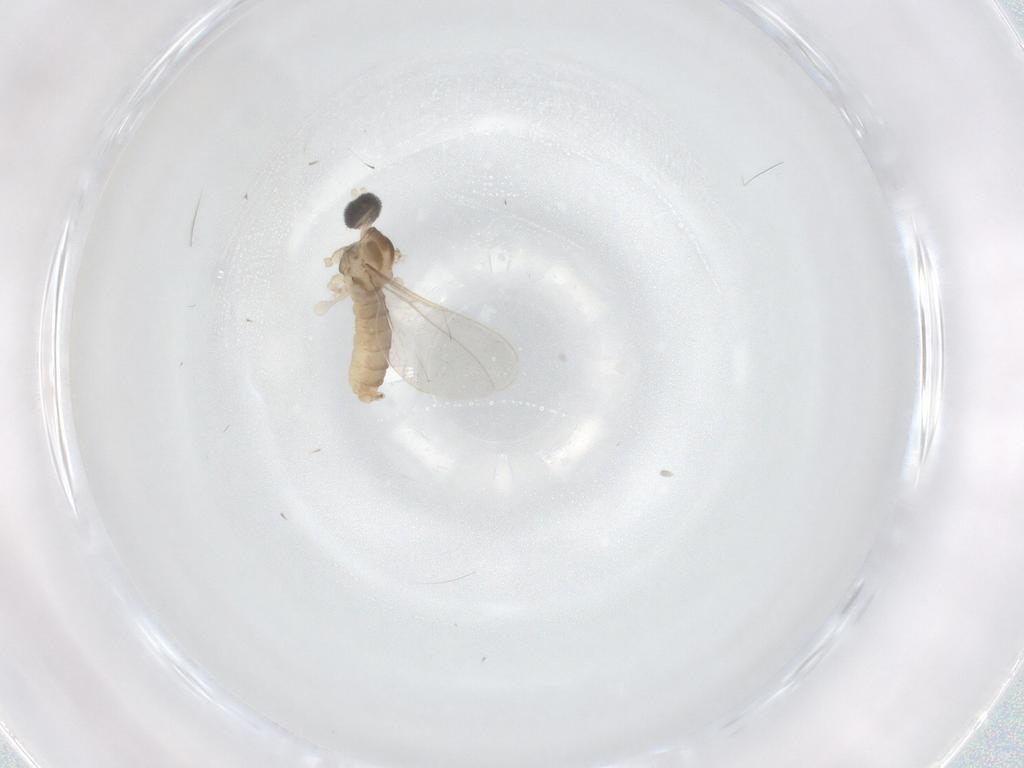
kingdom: Animalia
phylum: Arthropoda
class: Insecta
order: Diptera
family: Cecidomyiidae
